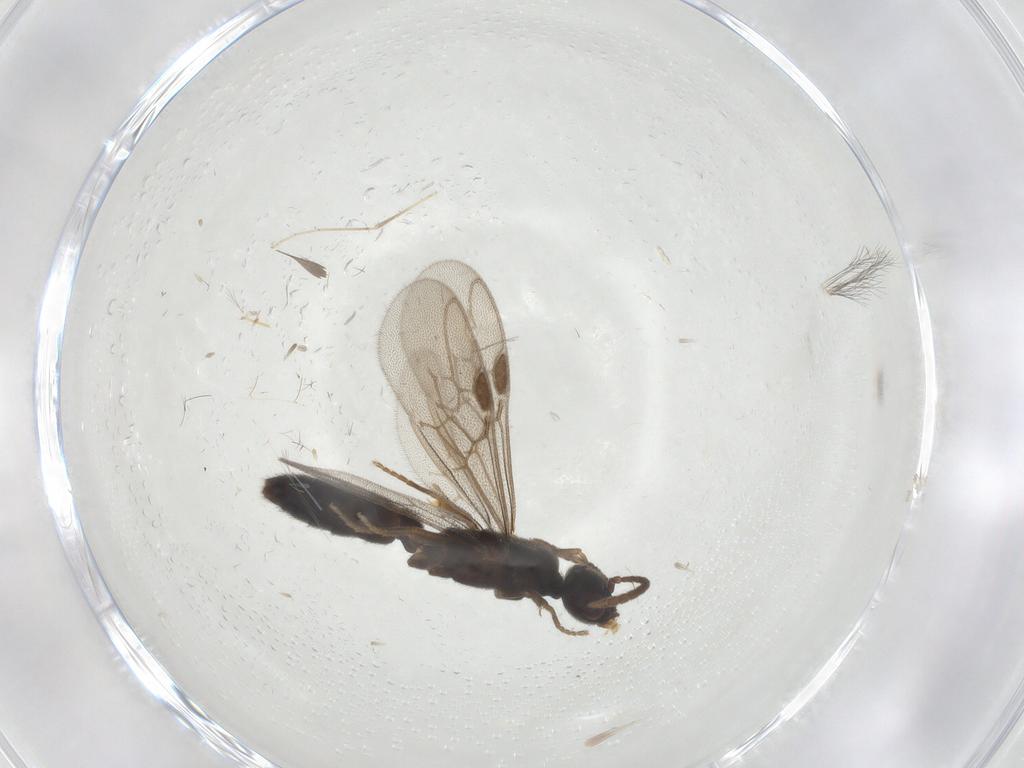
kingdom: Animalia
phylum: Arthropoda
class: Insecta
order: Hymenoptera
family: Formicidae
